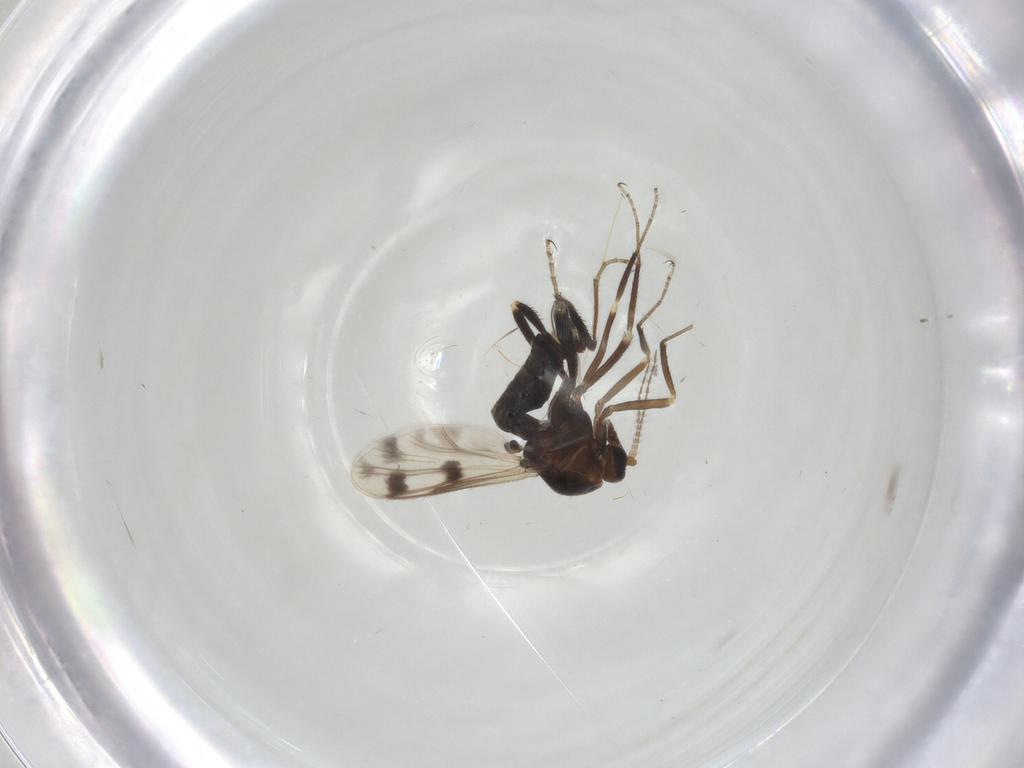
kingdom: Animalia
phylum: Arthropoda
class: Insecta
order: Diptera
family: Ceratopogonidae
